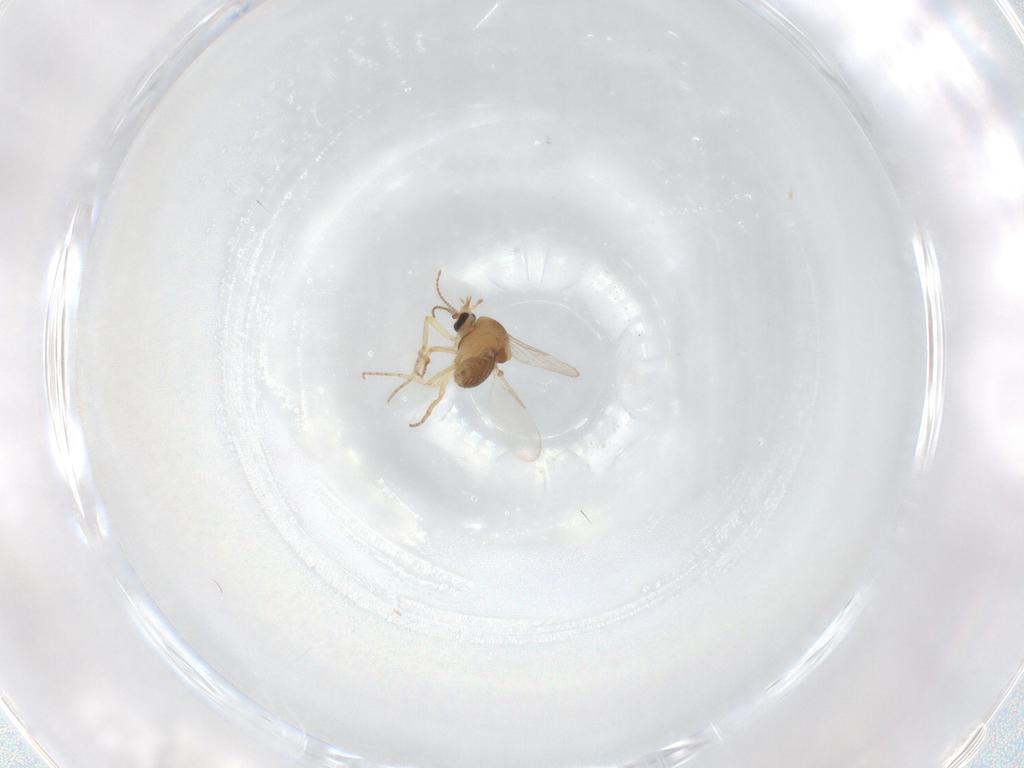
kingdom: Animalia
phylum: Arthropoda
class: Insecta
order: Diptera
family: Ceratopogonidae
